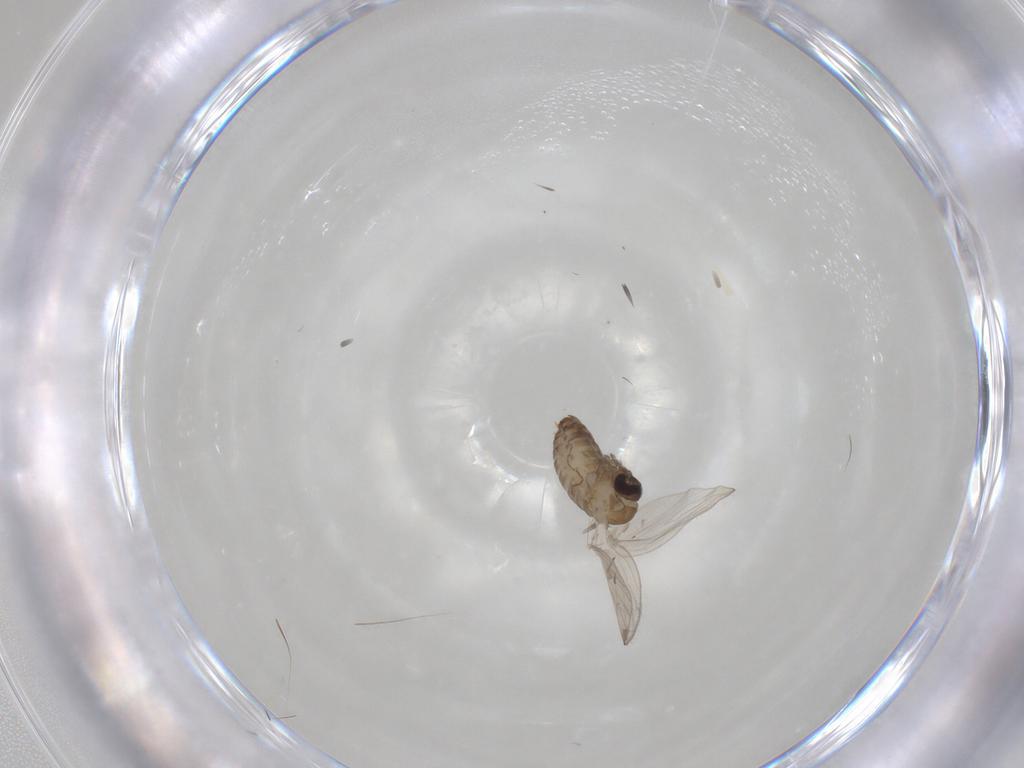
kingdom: Animalia
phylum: Arthropoda
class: Insecta
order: Diptera
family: Psychodidae
